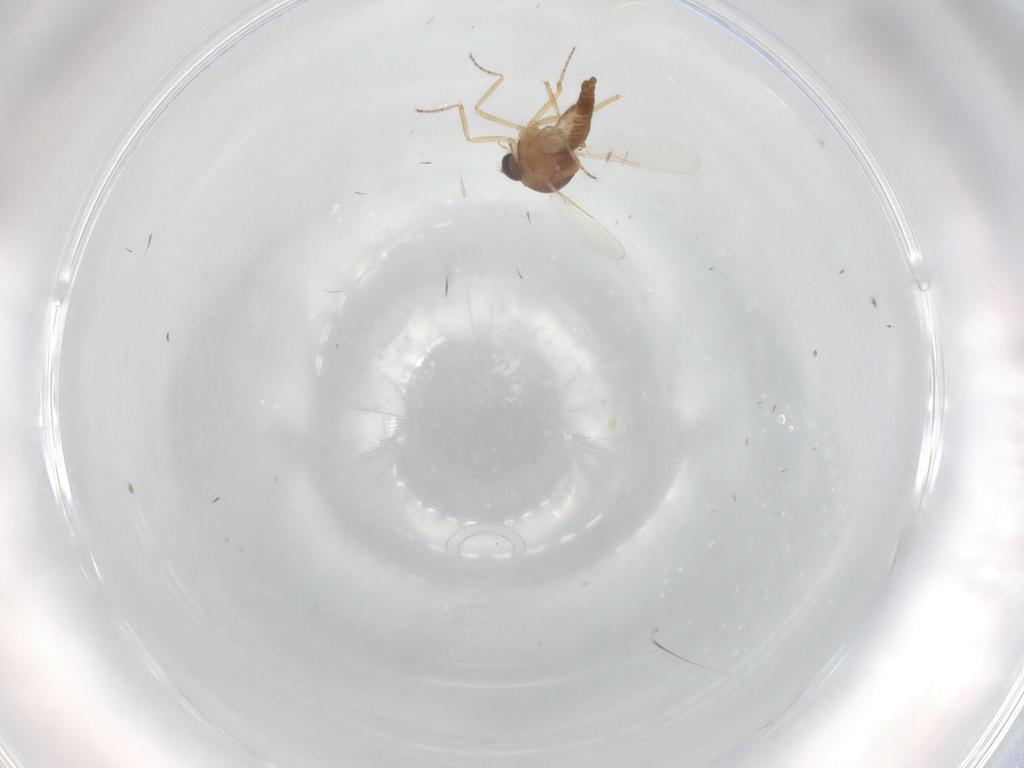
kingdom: Animalia
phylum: Arthropoda
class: Insecta
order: Diptera
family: Ceratopogonidae
